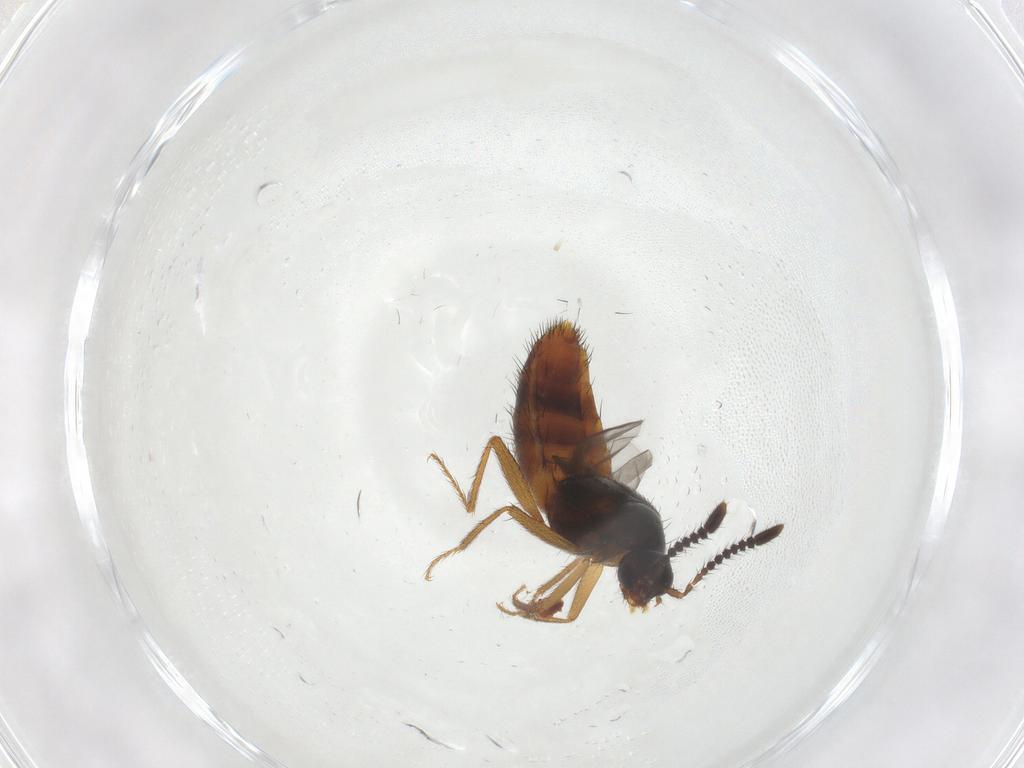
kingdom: Animalia
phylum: Arthropoda
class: Insecta
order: Coleoptera
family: Staphylinidae
